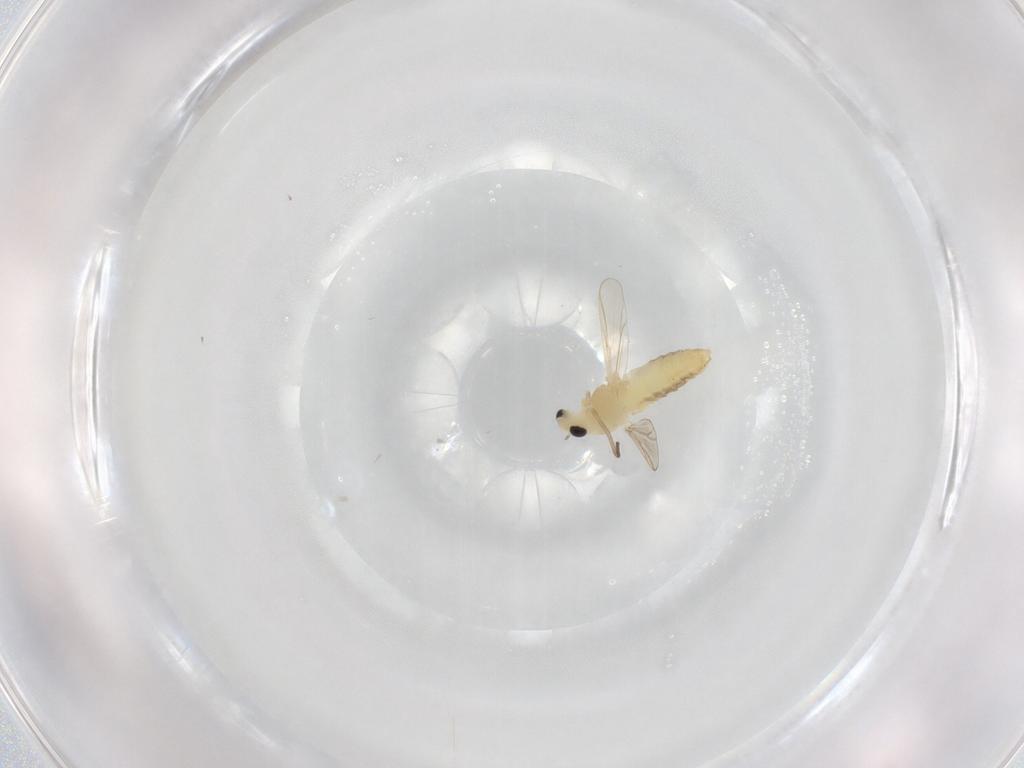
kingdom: Animalia
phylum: Arthropoda
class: Insecta
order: Diptera
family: Chironomidae
